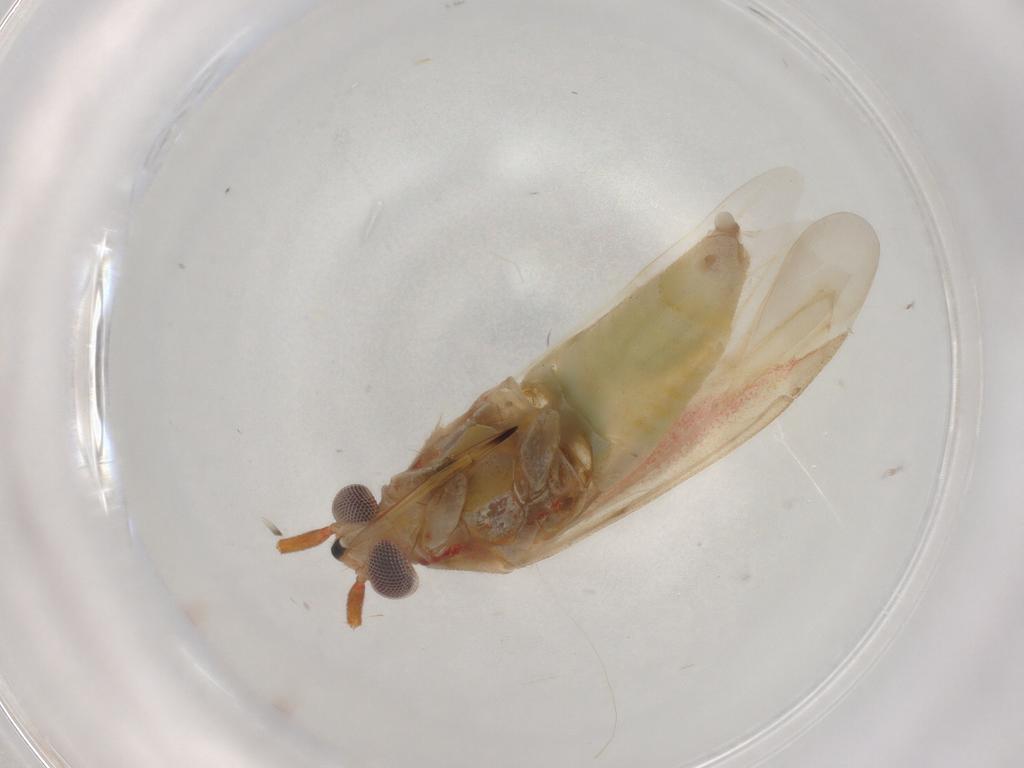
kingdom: Animalia
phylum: Arthropoda
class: Insecta
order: Hemiptera
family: Miridae
